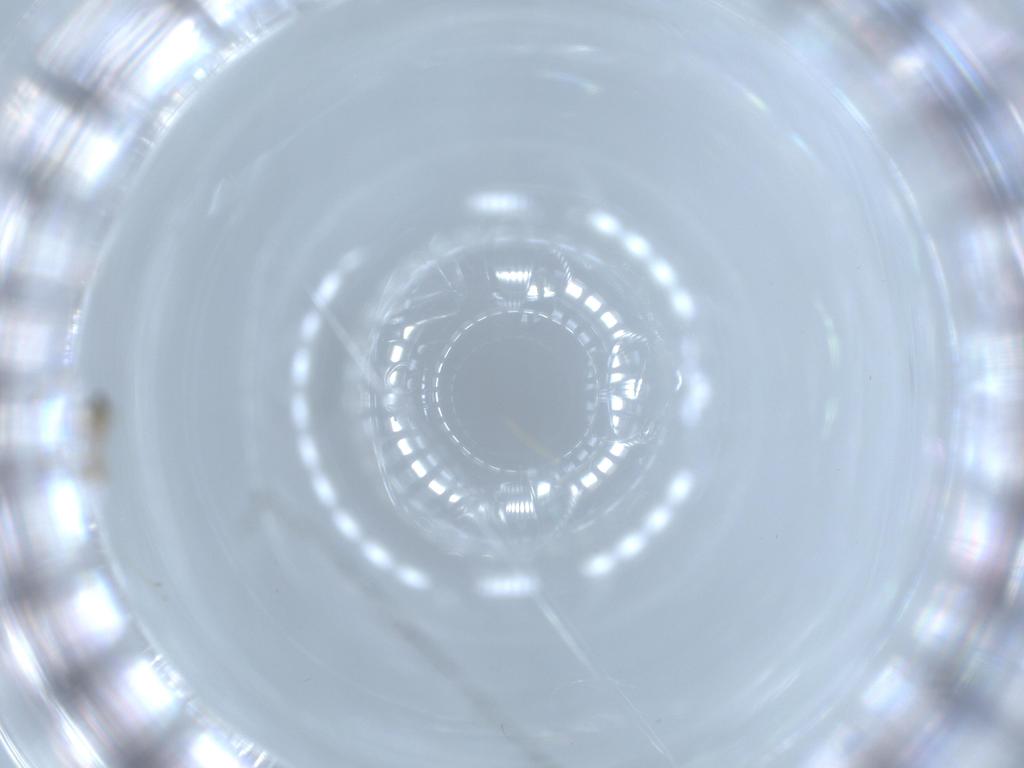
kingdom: Animalia
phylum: Arthropoda
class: Insecta
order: Diptera
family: Cecidomyiidae
